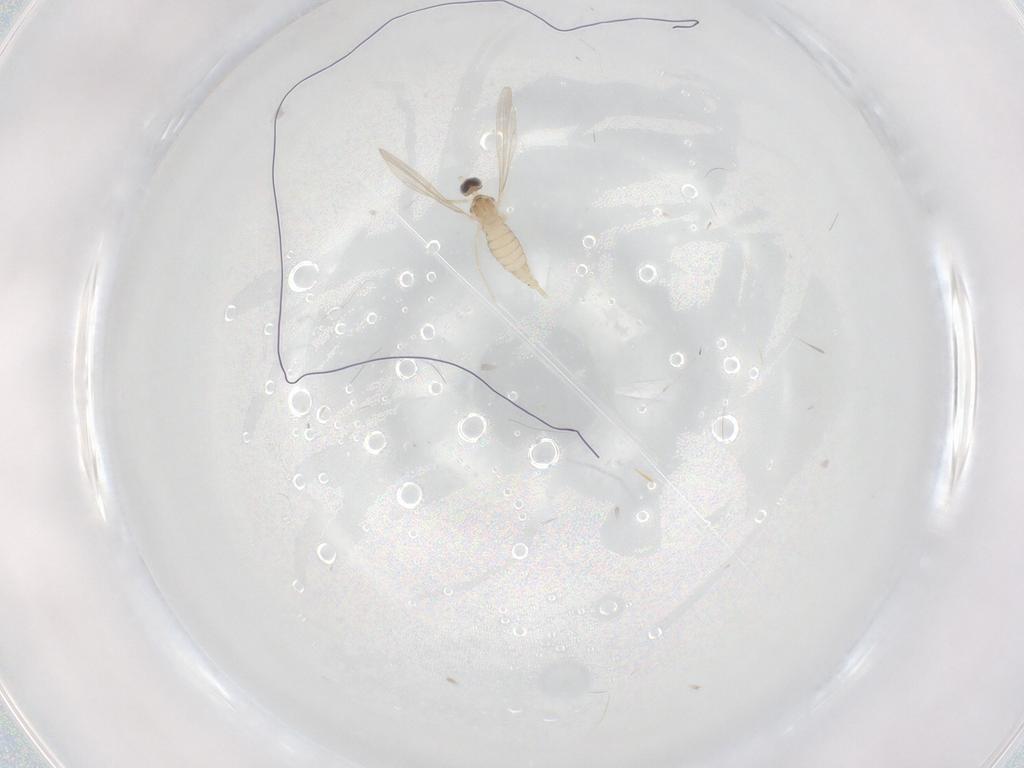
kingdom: Animalia
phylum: Arthropoda
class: Insecta
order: Diptera
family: Cecidomyiidae
